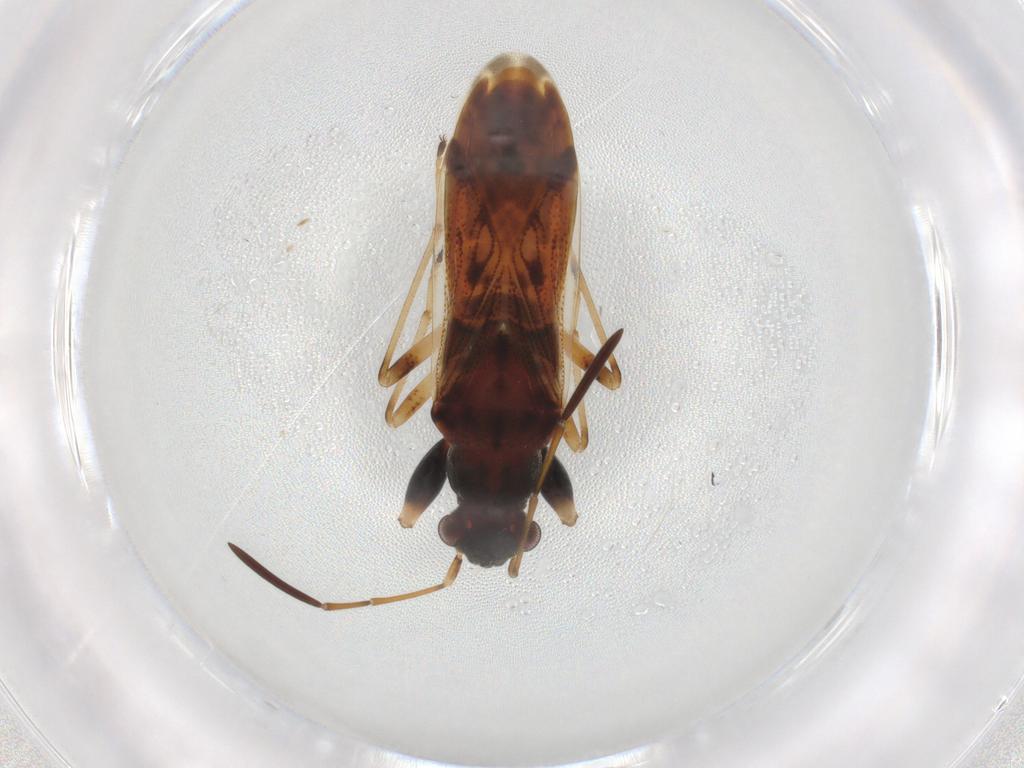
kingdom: Animalia
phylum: Arthropoda
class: Insecta
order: Hemiptera
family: Rhyparochromidae
